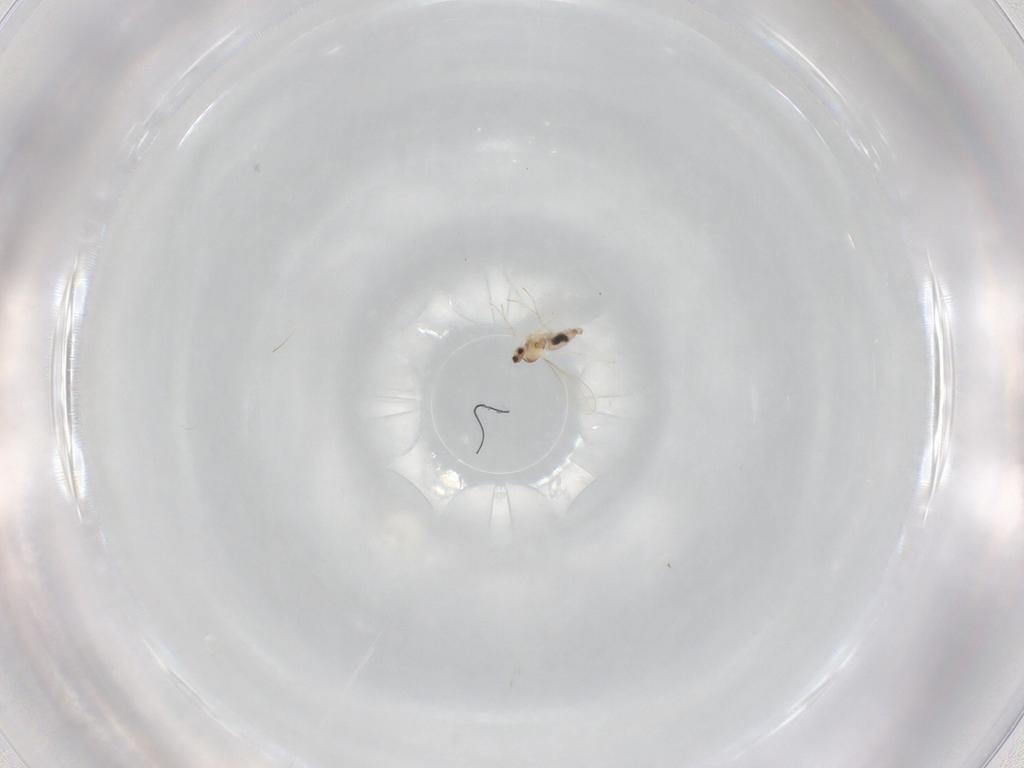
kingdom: Animalia
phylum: Arthropoda
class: Insecta
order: Diptera
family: Cecidomyiidae
